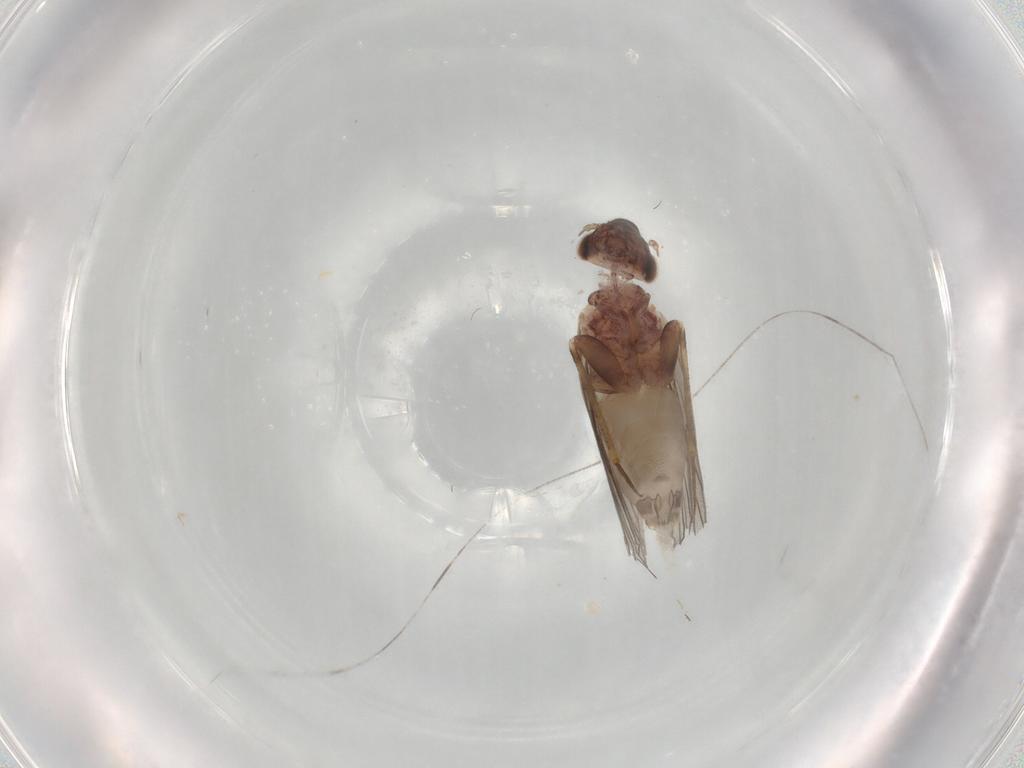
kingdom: Animalia
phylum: Arthropoda
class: Insecta
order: Psocodea
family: Lepidopsocidae
